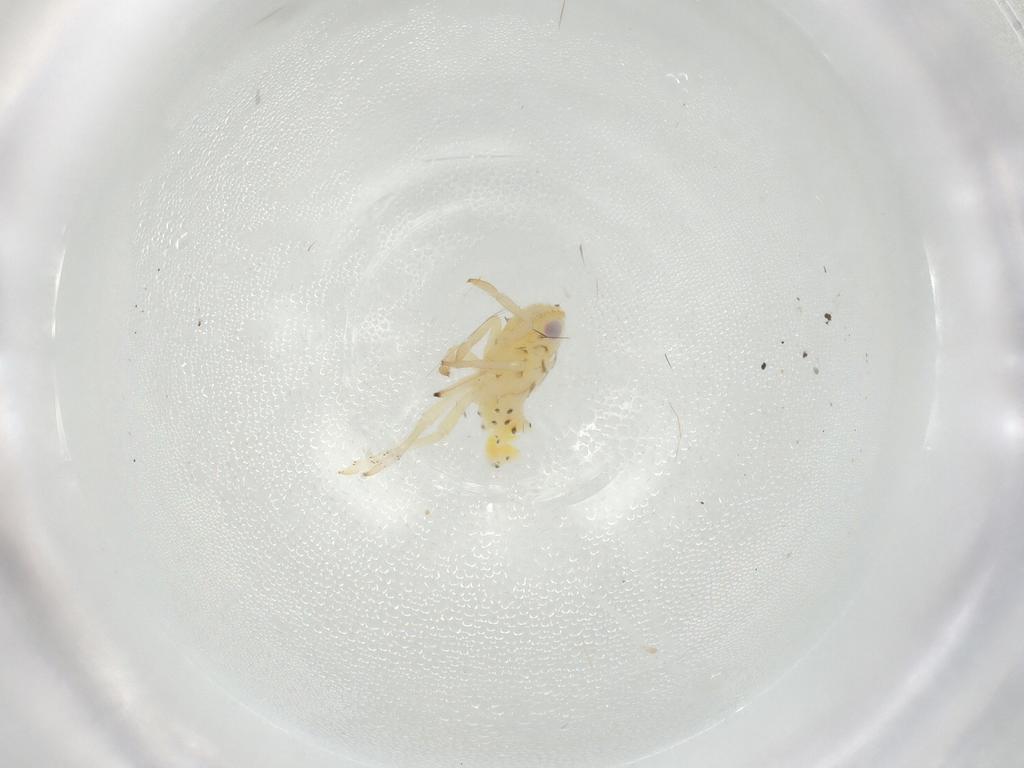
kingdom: Animalia
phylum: Arthropoda
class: Insecta
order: Hemiptera
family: Tropiduchidae
